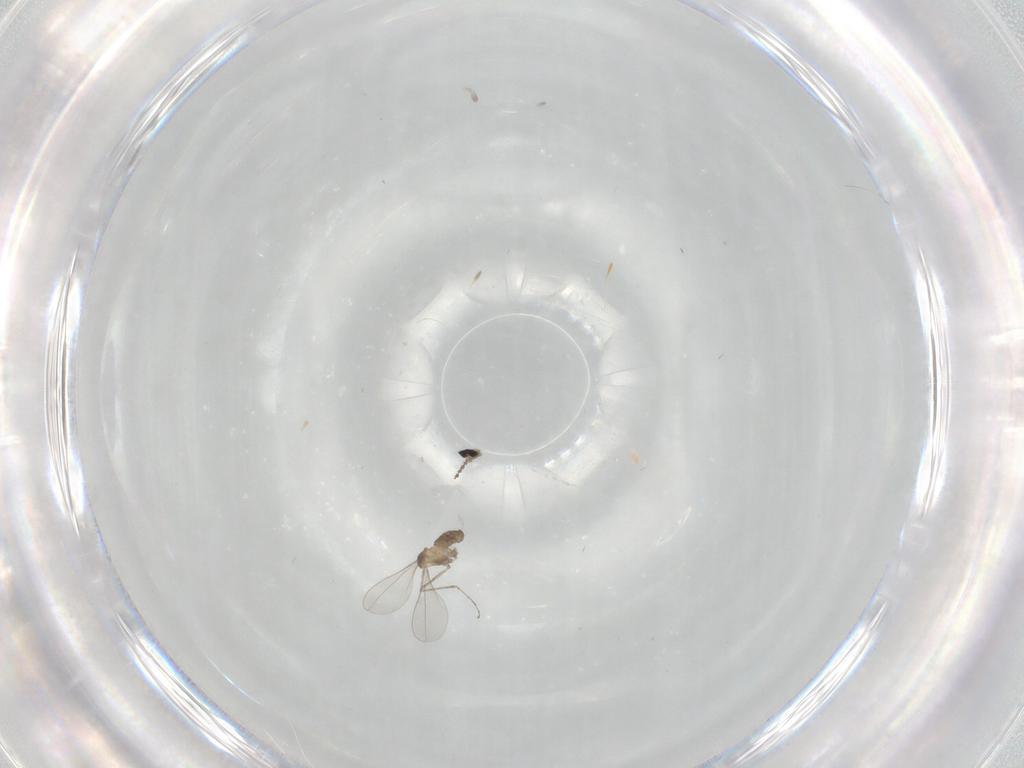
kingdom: Animalia
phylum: Arthropoda
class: Insecta
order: Diptera
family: Cecidomyiidae
